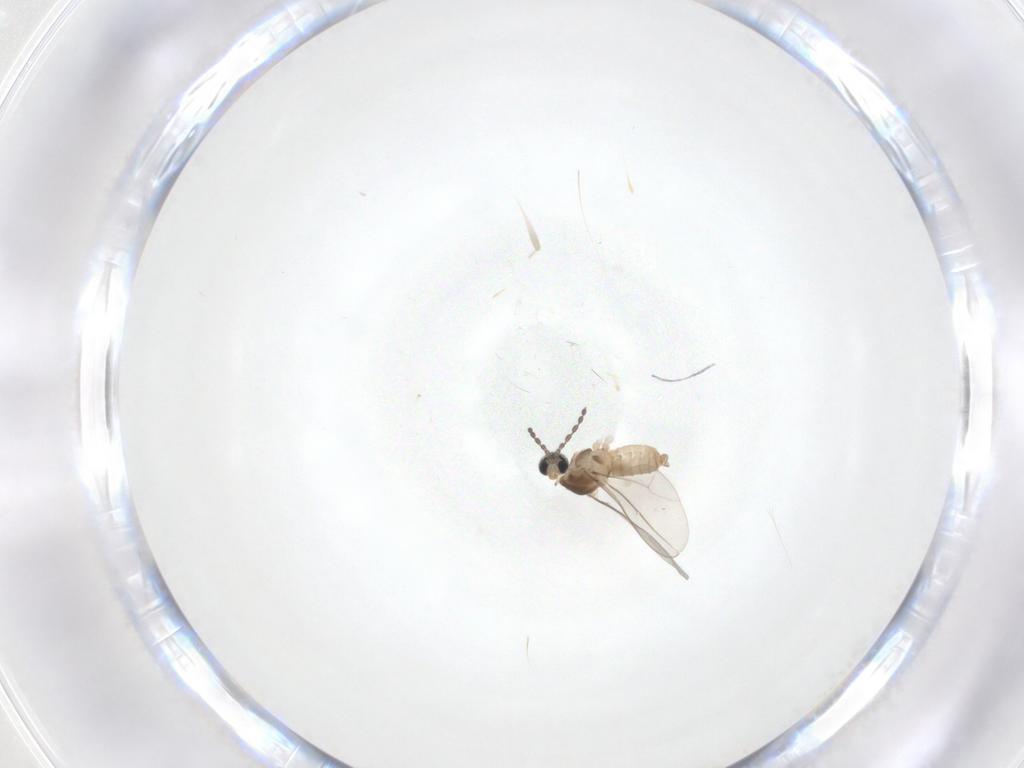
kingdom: Animalia
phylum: Arthropoda
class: Insecta
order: Diptera
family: Cecidomyiidae
